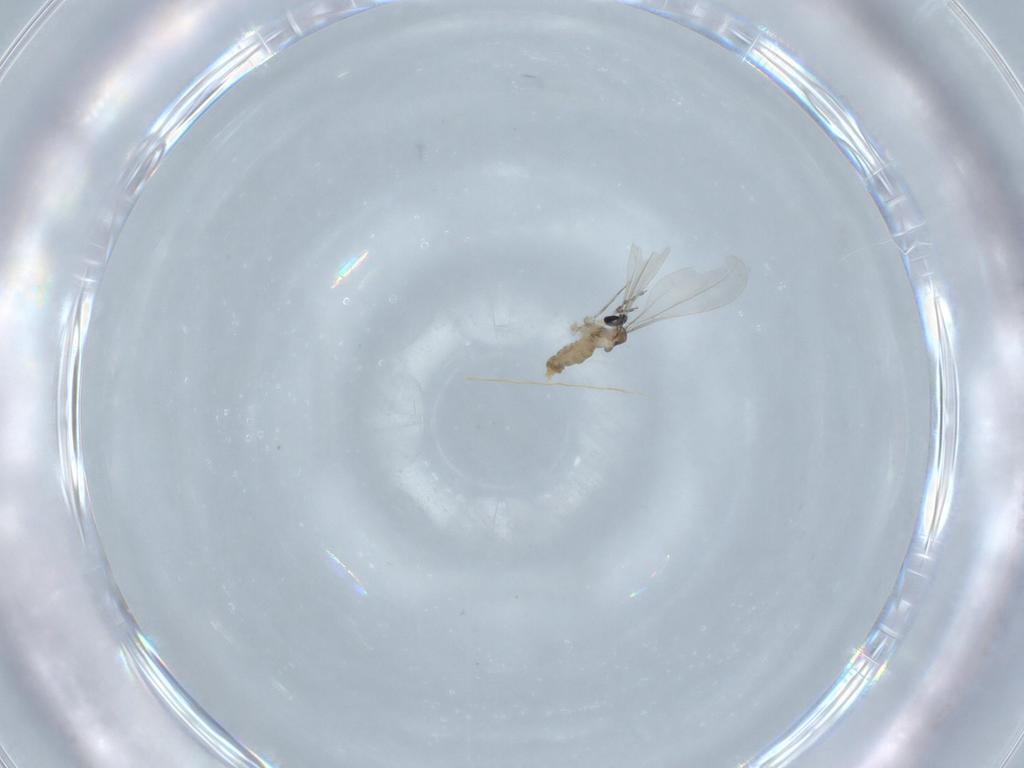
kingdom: Animalia
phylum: Arthropoda
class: Insecta
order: Diptera
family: Cecidomyiidae
